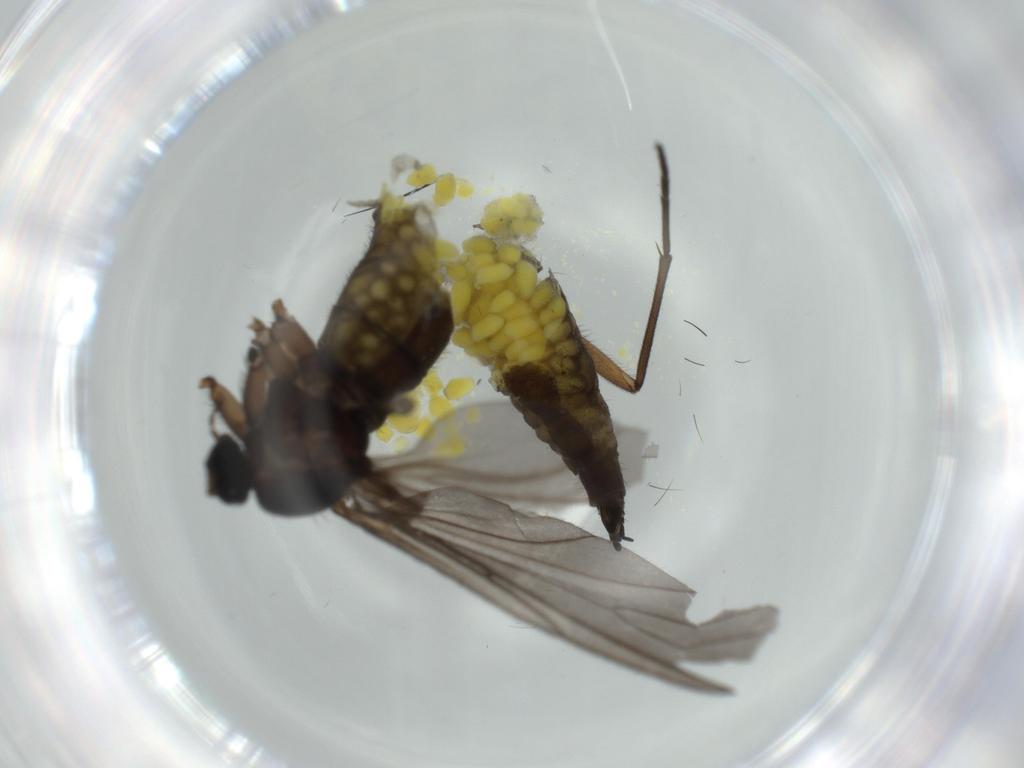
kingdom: Animalia
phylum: Arthropoda
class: Insecta
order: Diptera
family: Sciaridae
